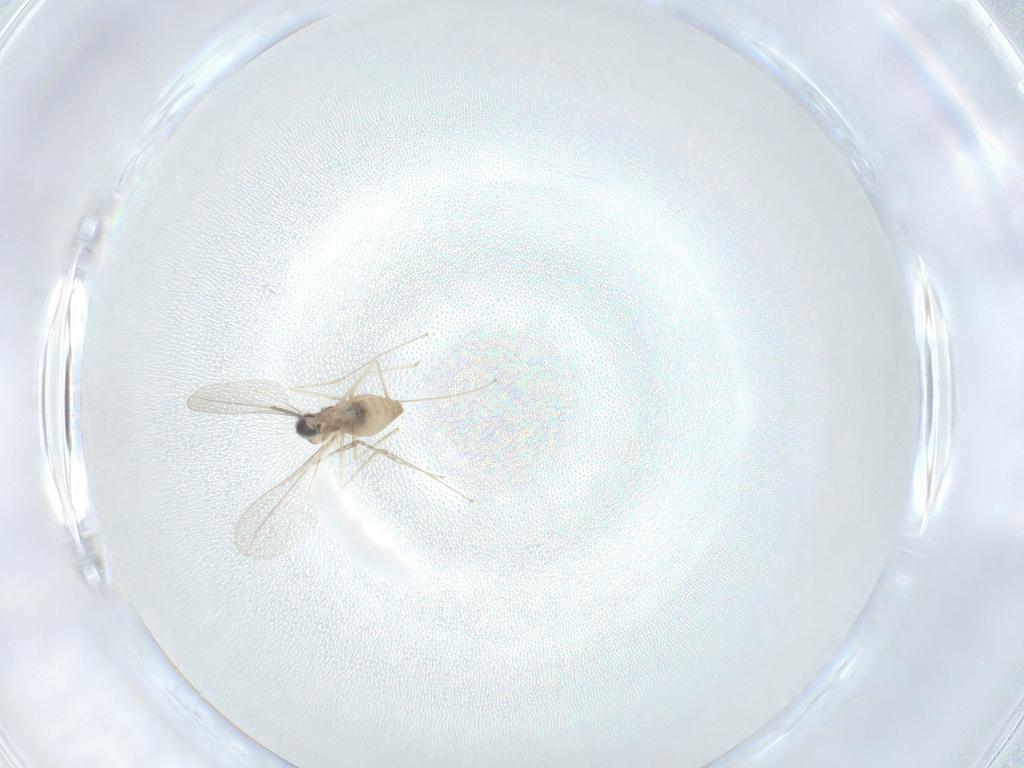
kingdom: Animalia
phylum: Arthropoda
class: Insecta
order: Diptera
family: Cecidomyiidae
